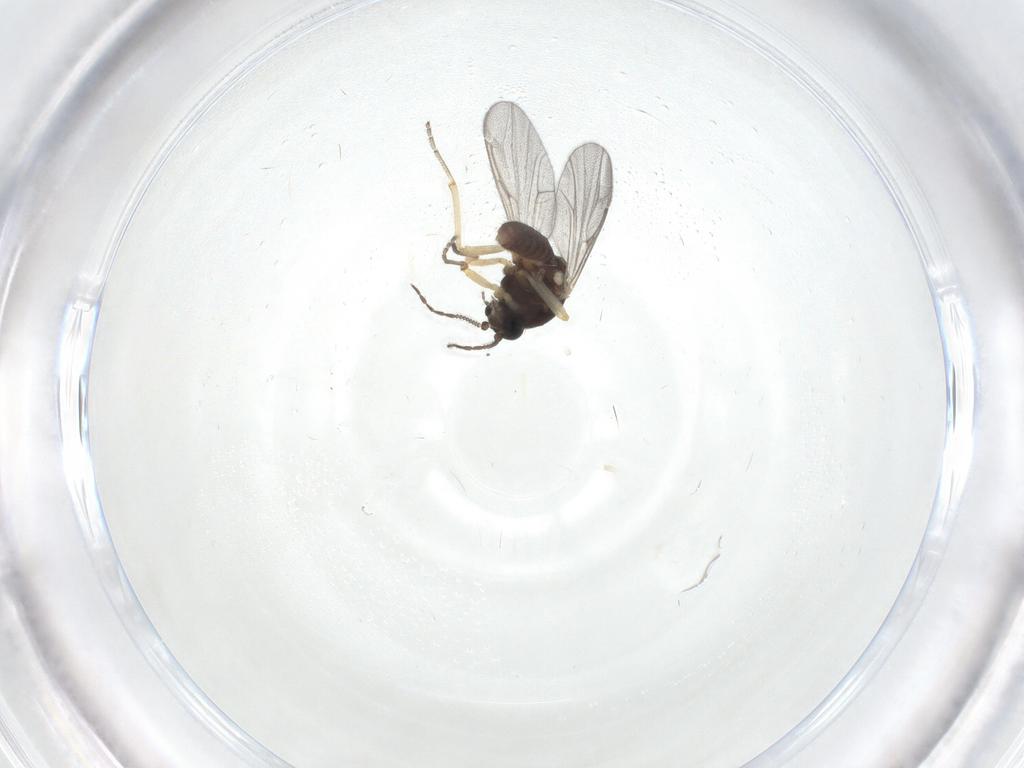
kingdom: Animalia
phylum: Arthropoda
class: Insecta
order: Diptera
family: Ceratopogonidae
